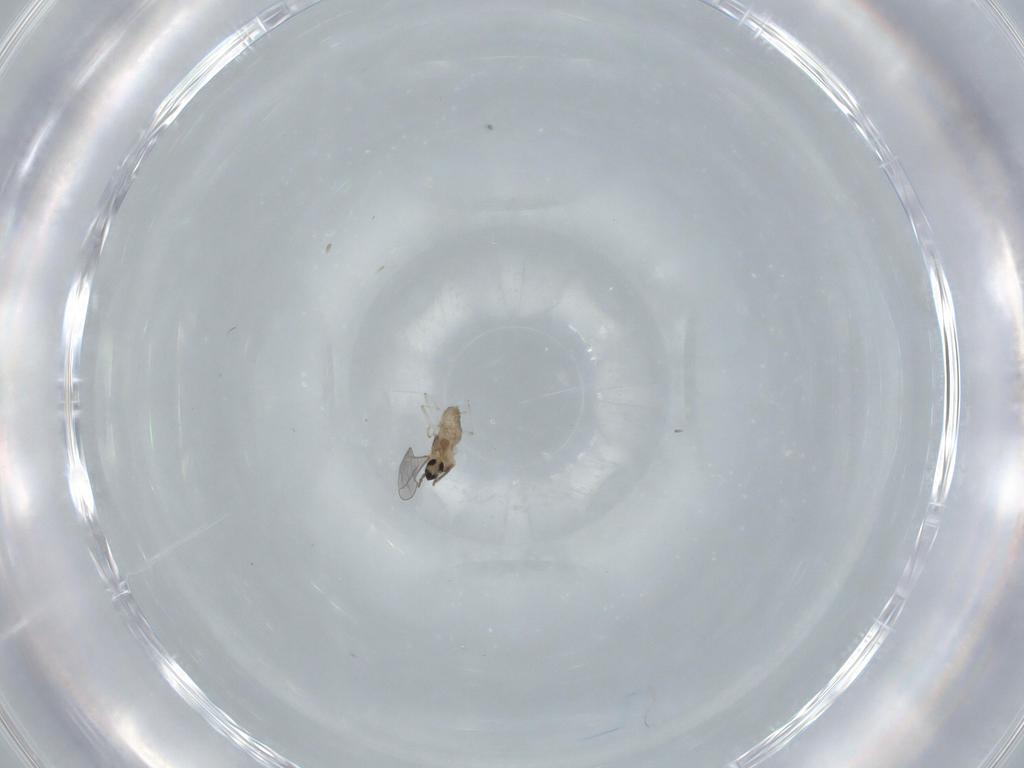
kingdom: Animalia
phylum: Arthropoda
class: Insecta
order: Diptera
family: Cecidomyiidae
